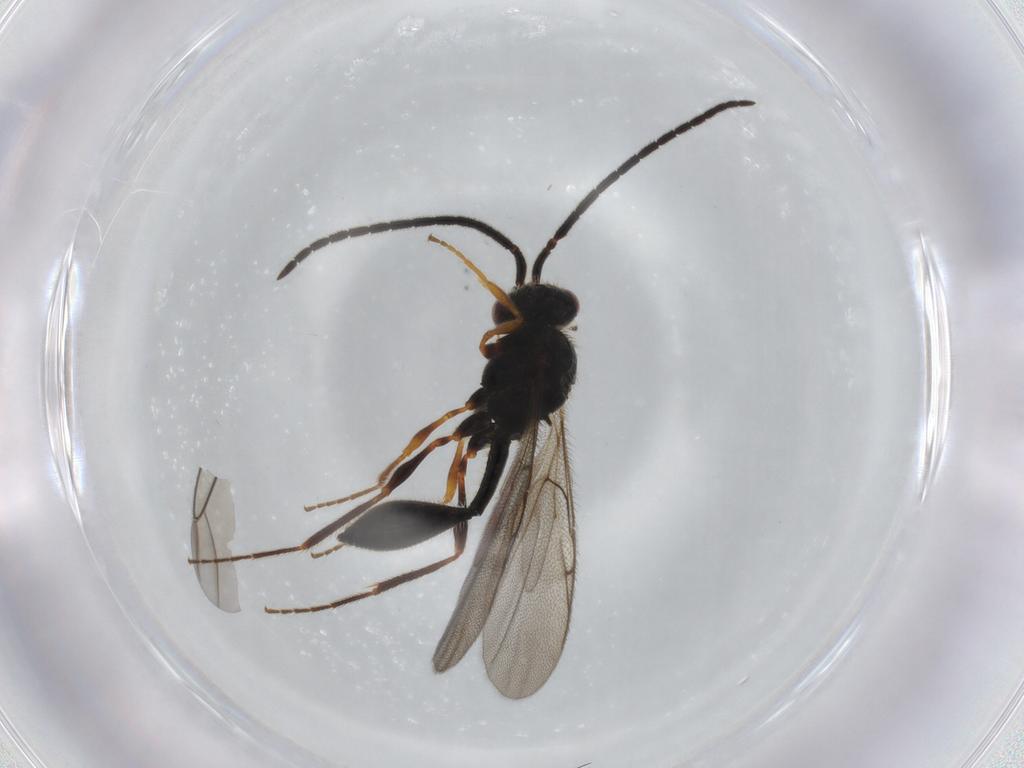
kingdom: Animalia
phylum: Arthropoda
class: Insecta
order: Hymenoptera
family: Diapriidae
